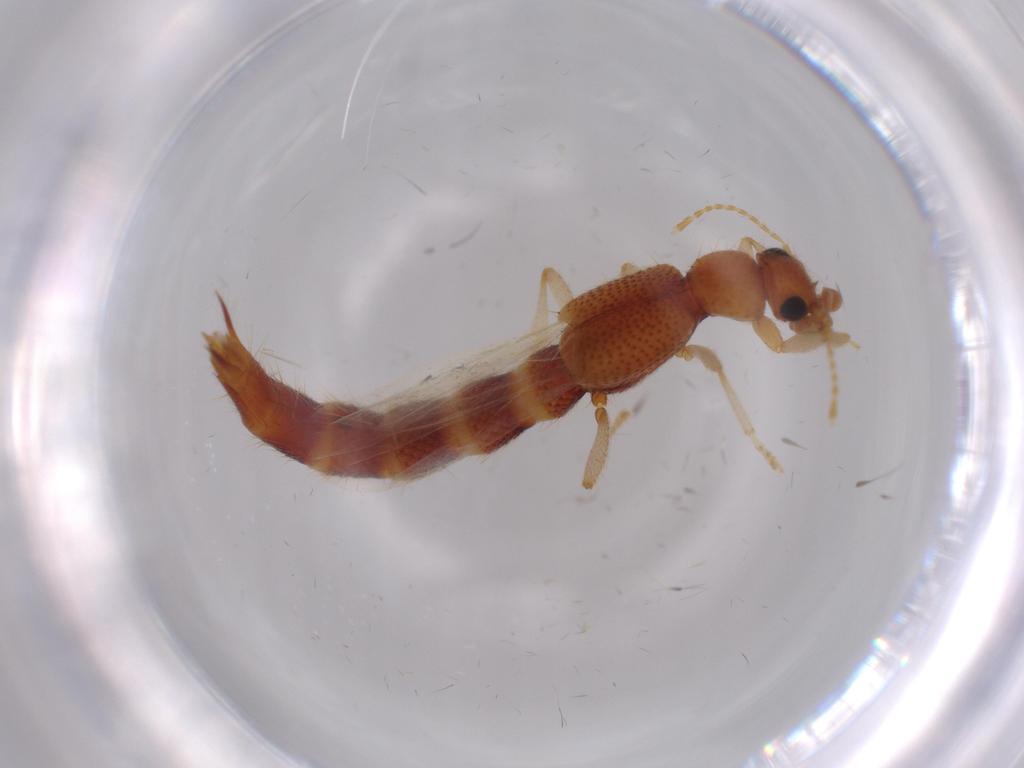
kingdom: Animalia
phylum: Arthropoda
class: Insecta
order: Coleoptera
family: Staphylinidae
